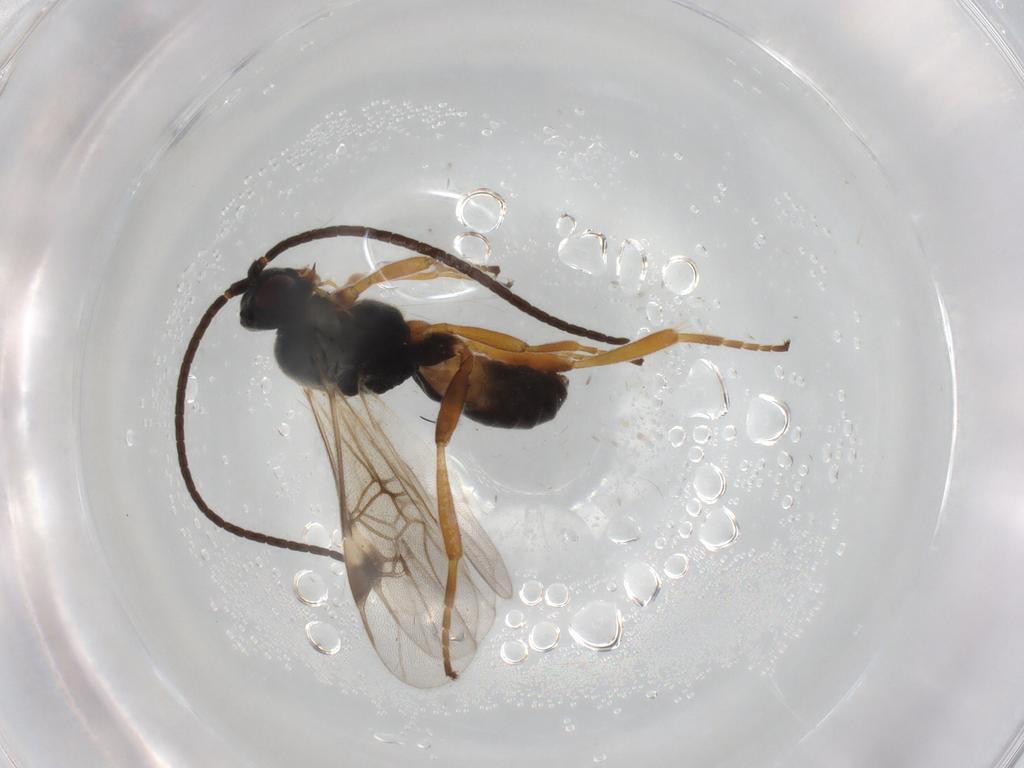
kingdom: Animalia
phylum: Arthropoda
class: Insecta
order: Hymenoptera
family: Braconidae
